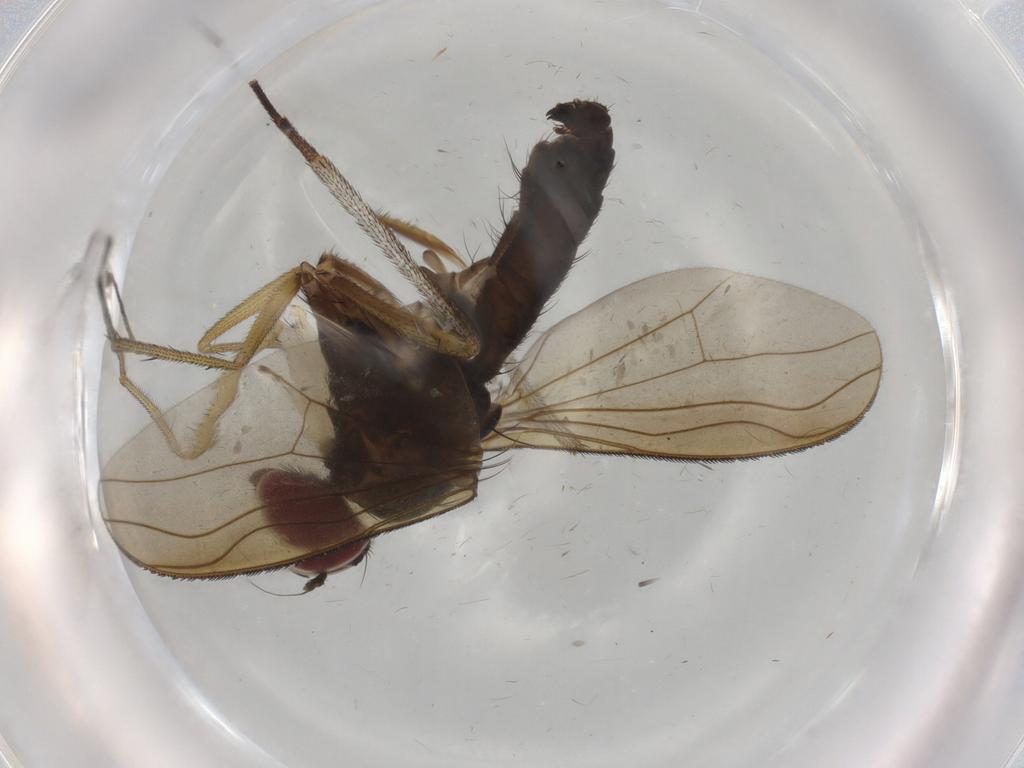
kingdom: Animalia
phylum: Arthropoda
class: Insecta
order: Diptera
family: Dolichopodidae
